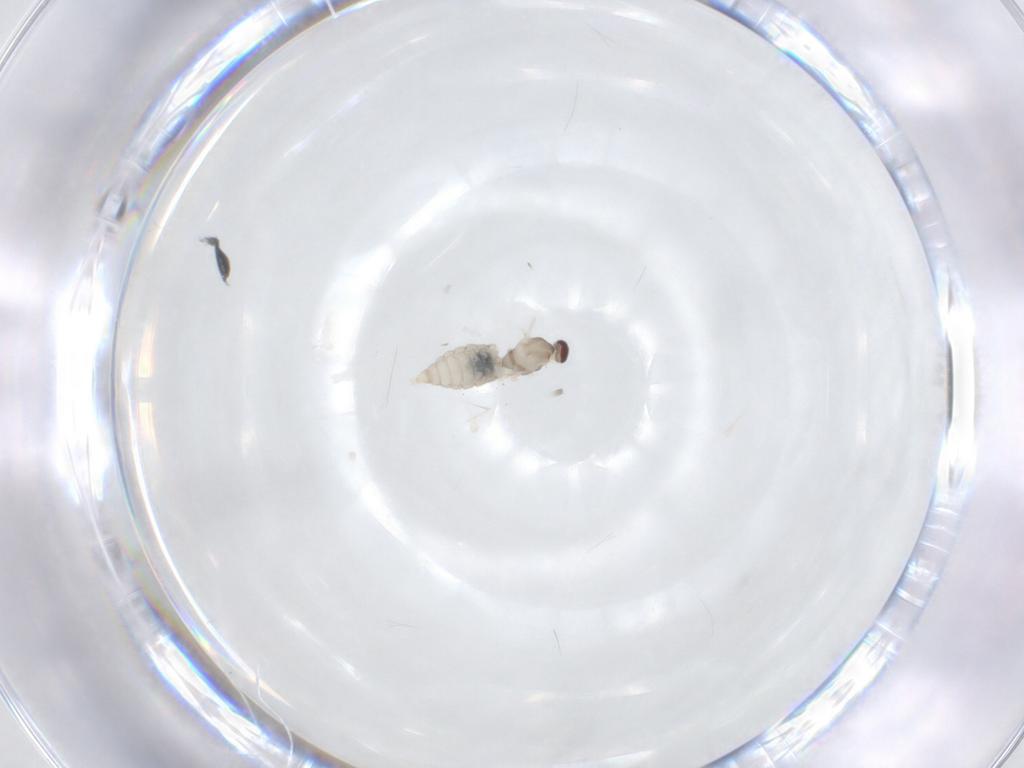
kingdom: Animalia
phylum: Arthropoda
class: Insecta
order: Diptera
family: Cecidomyiidae
